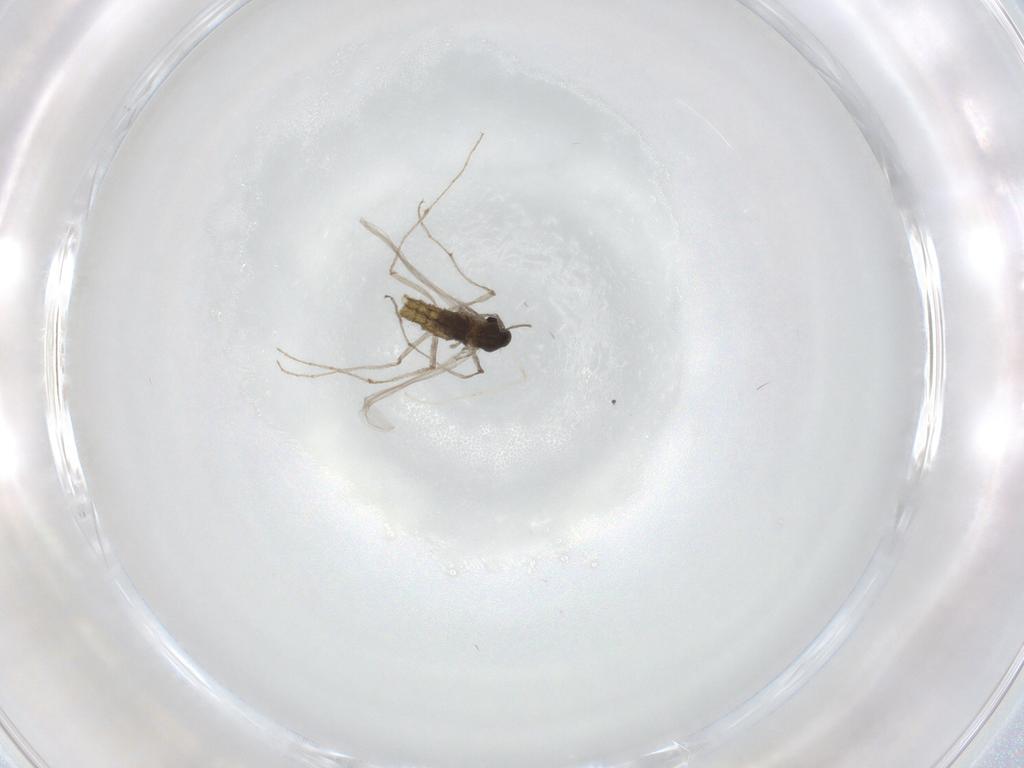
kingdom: Animalia
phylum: Arthropoda
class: Insecta
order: Diptera
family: Chironomidae
